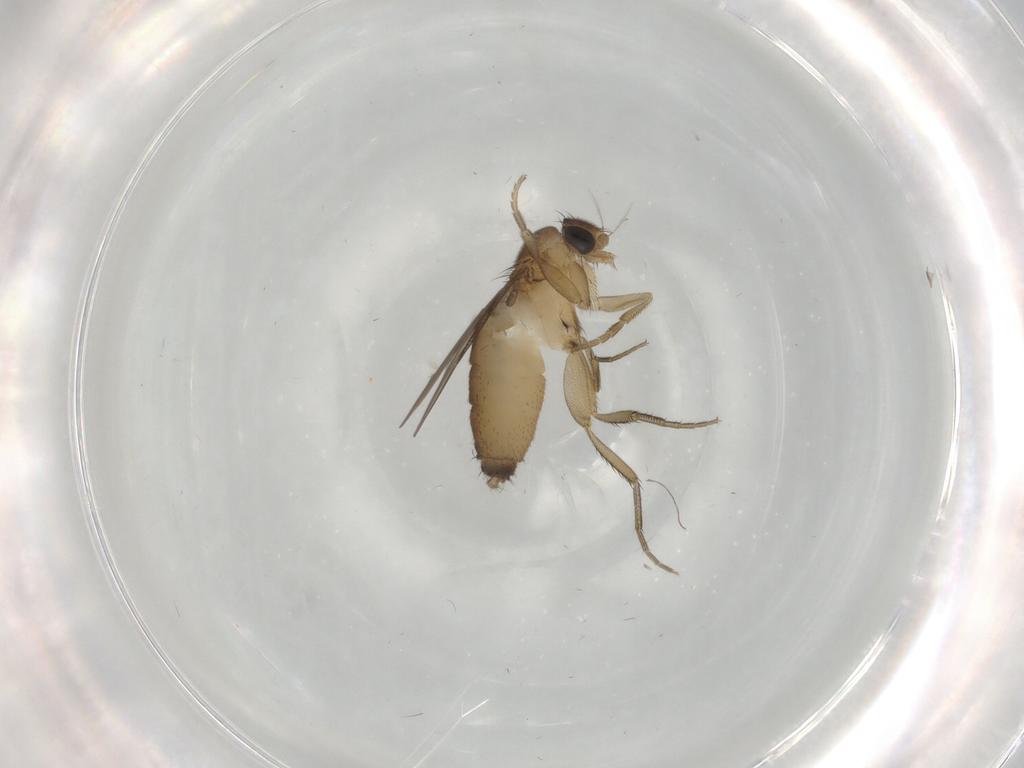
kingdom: Animalia
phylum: Arthropoda
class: Insecta
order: Diptera
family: Phoridae
